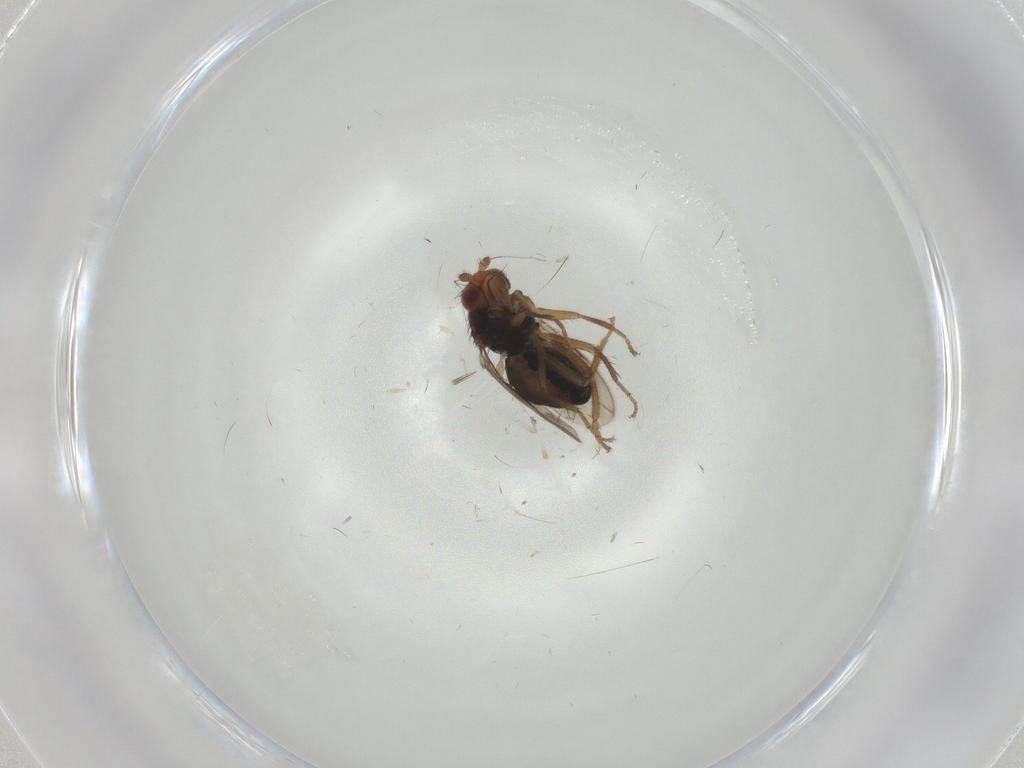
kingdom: Animalia
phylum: Arthropoda
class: Insecta
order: Diptera
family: Sphaeroceridae
